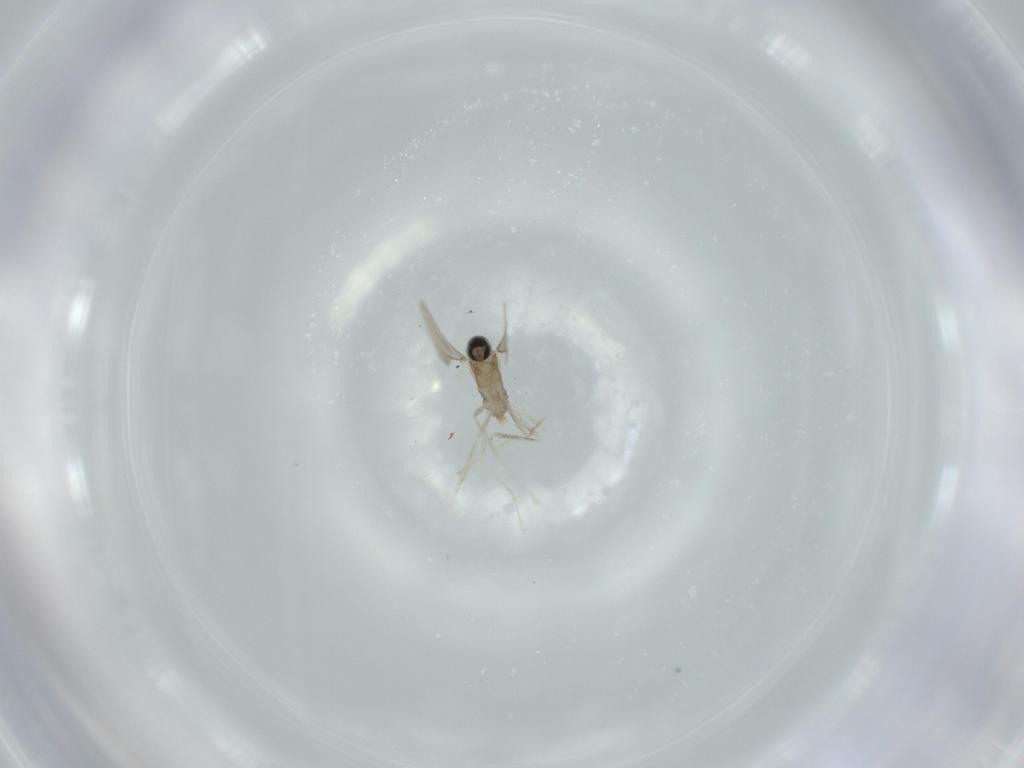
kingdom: Animalia
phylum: Arthropoda
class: Insecta
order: Diptera
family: Cecidomyiidae
